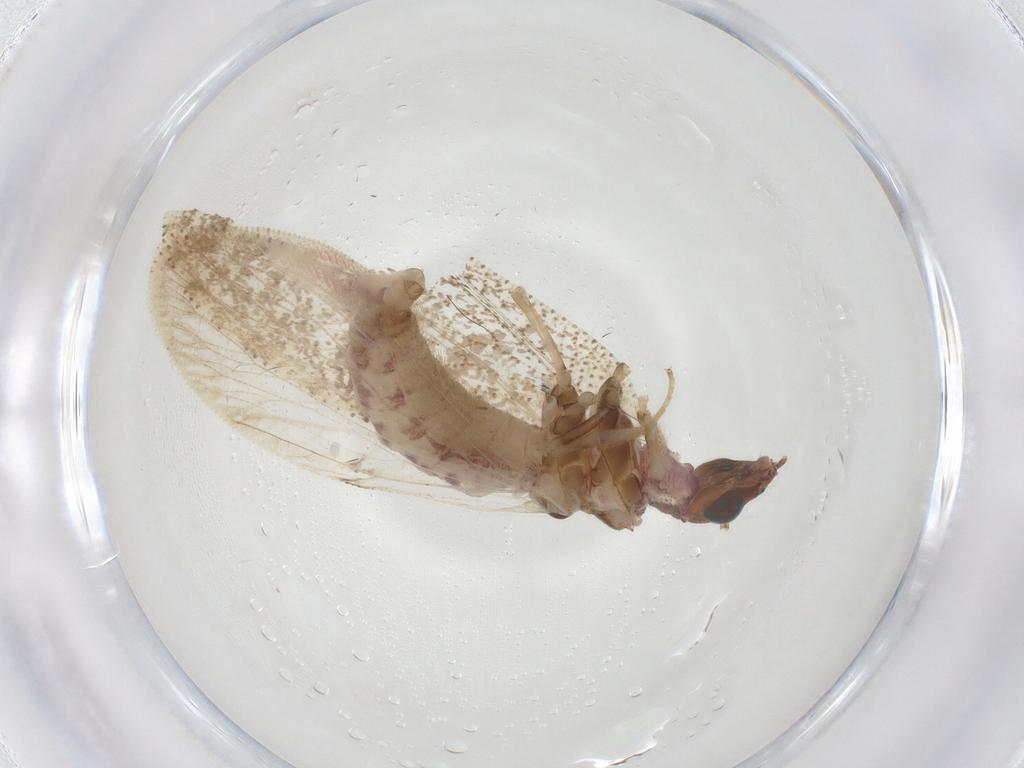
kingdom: Animalia
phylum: Arthropoda
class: Insecta
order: Neuroptera
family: Hemerobiidae
